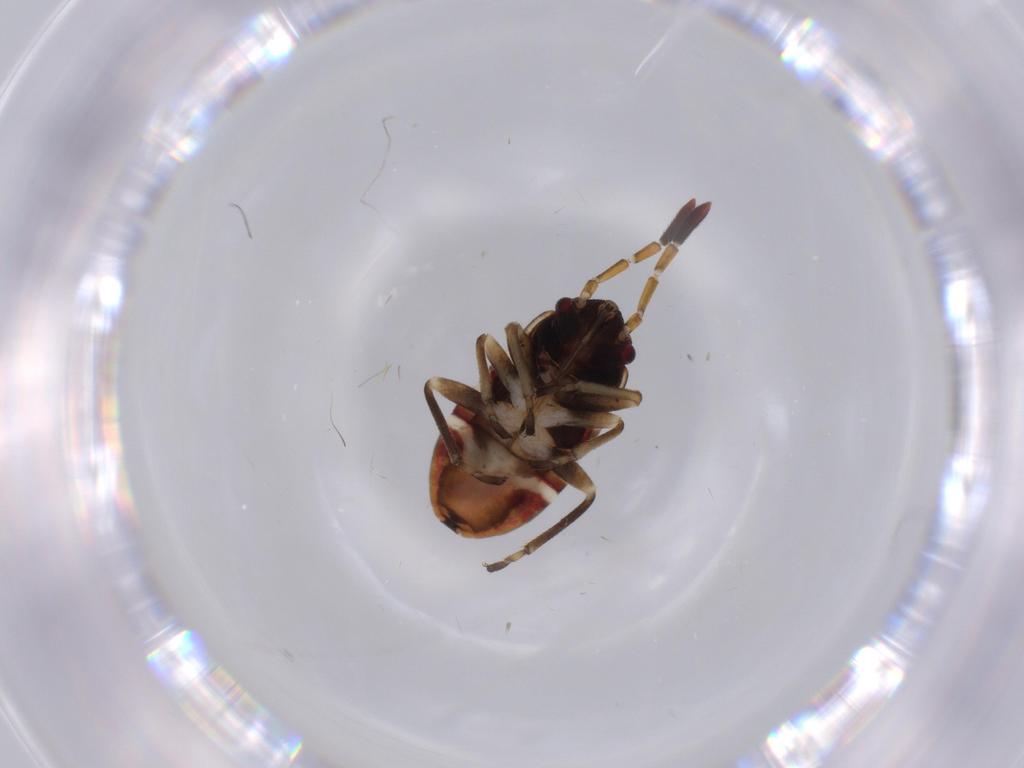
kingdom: Animalia
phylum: Arthropoda
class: Insecta
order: Hemiptera
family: Rhyparochromidae
